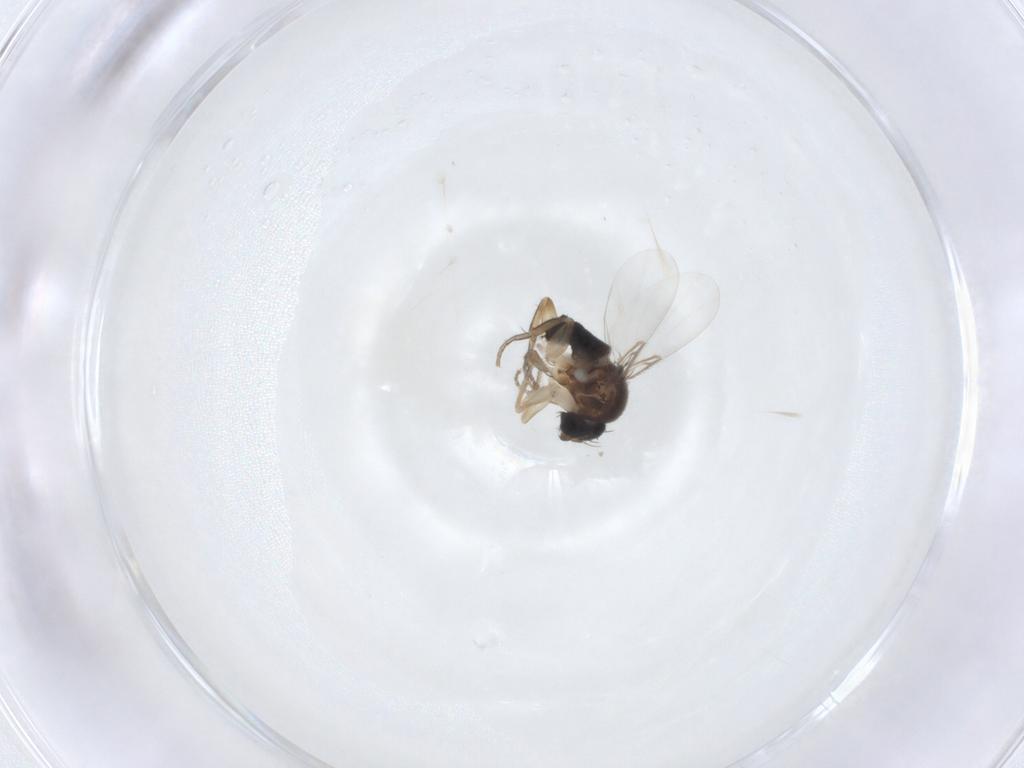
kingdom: Animalia
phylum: Arthropoda
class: Insecta
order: Diptera
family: Phoridae
